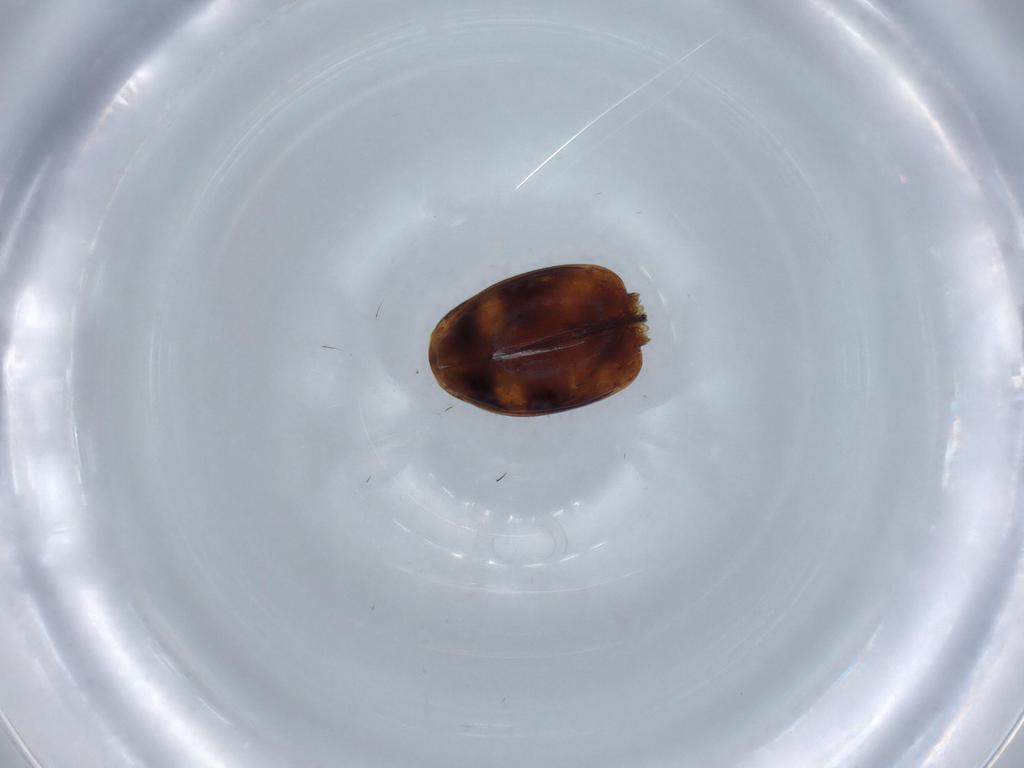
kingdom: Animalia
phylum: Arthropoda
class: Insecta
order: Coleoptera
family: Carabidae
